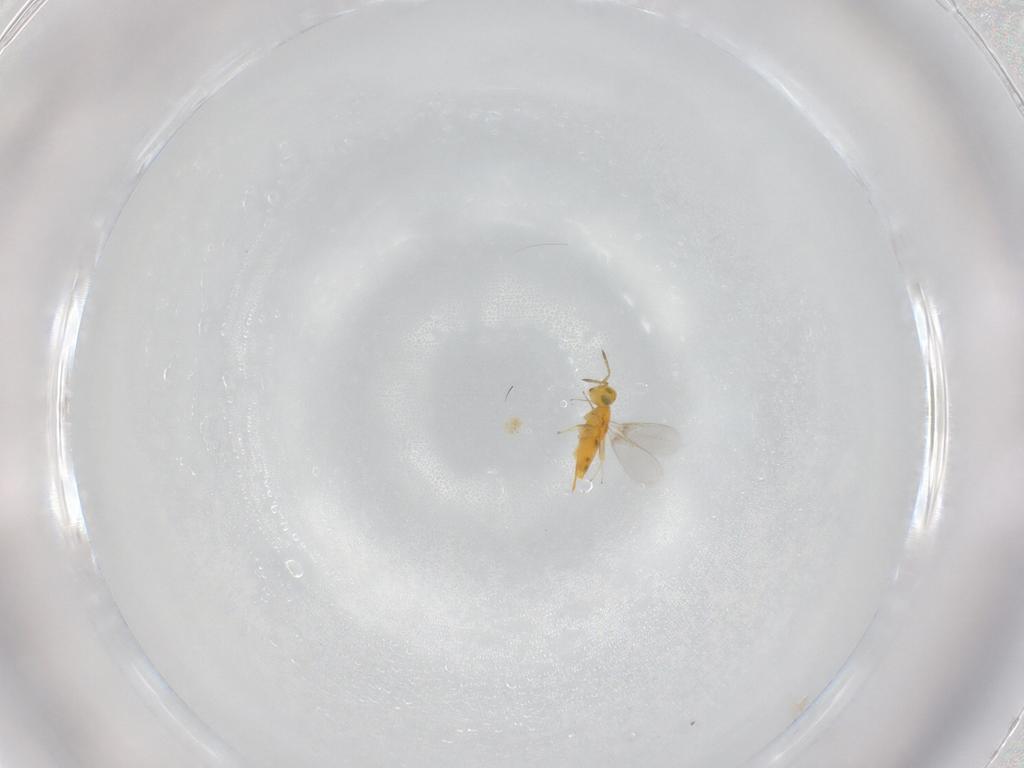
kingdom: Animalia
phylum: Arthropoda
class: Insecta
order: Hymenoptera
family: Aphelinidae
